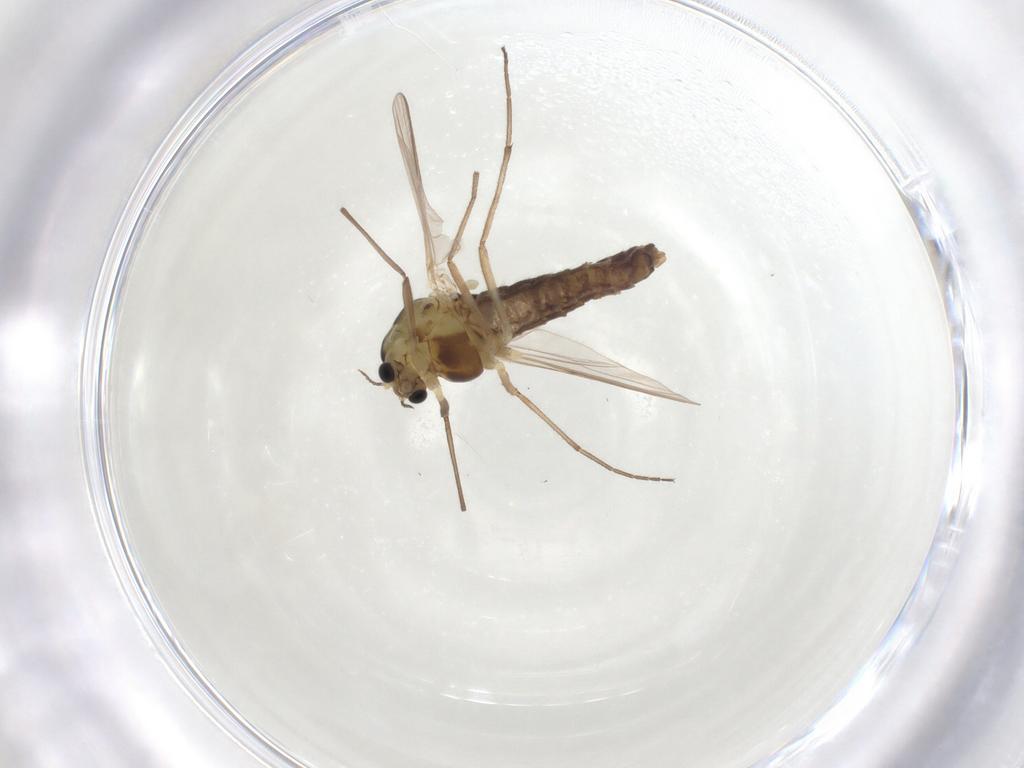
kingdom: Animalia
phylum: Arthropoda
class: Insecta
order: Diptera
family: Chironomidae
